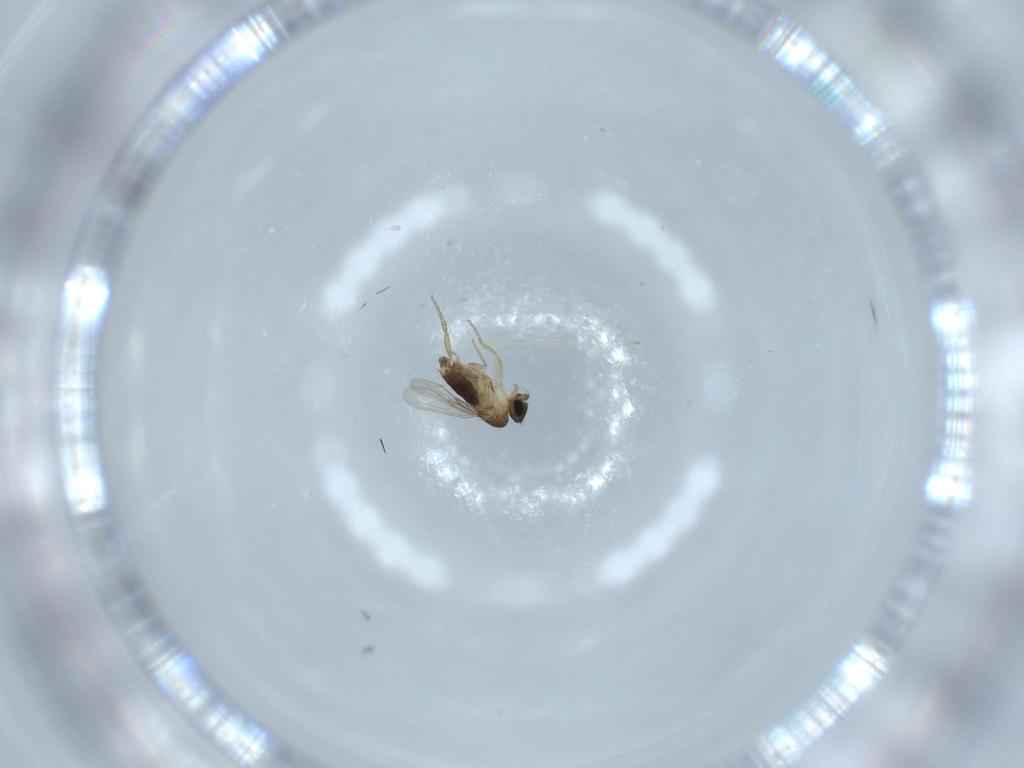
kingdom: Animalia
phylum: Arthropoda
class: Insecta
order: Diptera
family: Phoridae
